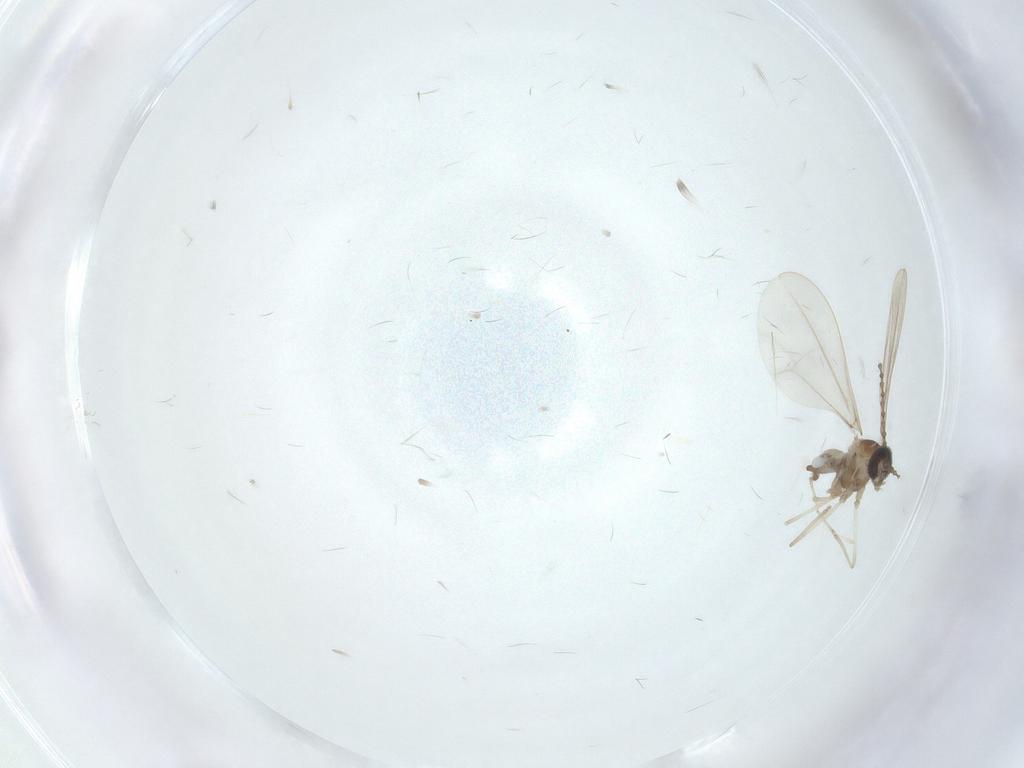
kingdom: Animalia
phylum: Arthropoda
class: Insecta
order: Diptera
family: Cecidomyiidae
